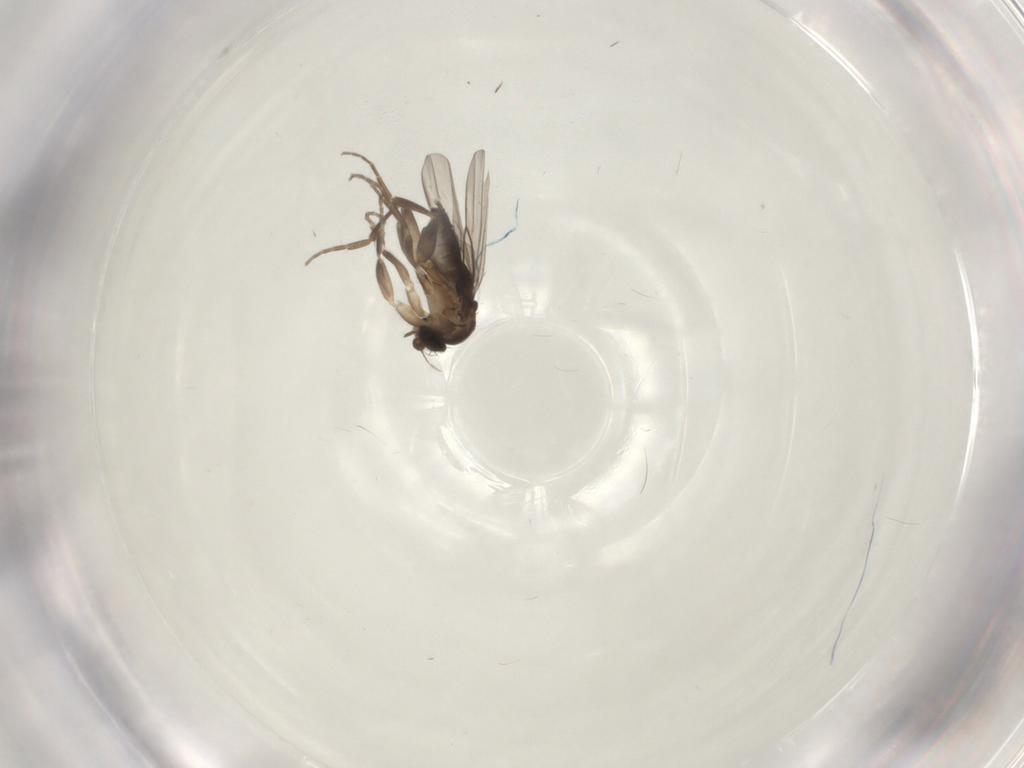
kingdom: Animalia
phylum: Arthropoda
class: Insecta
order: Diptera
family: Phoridae
